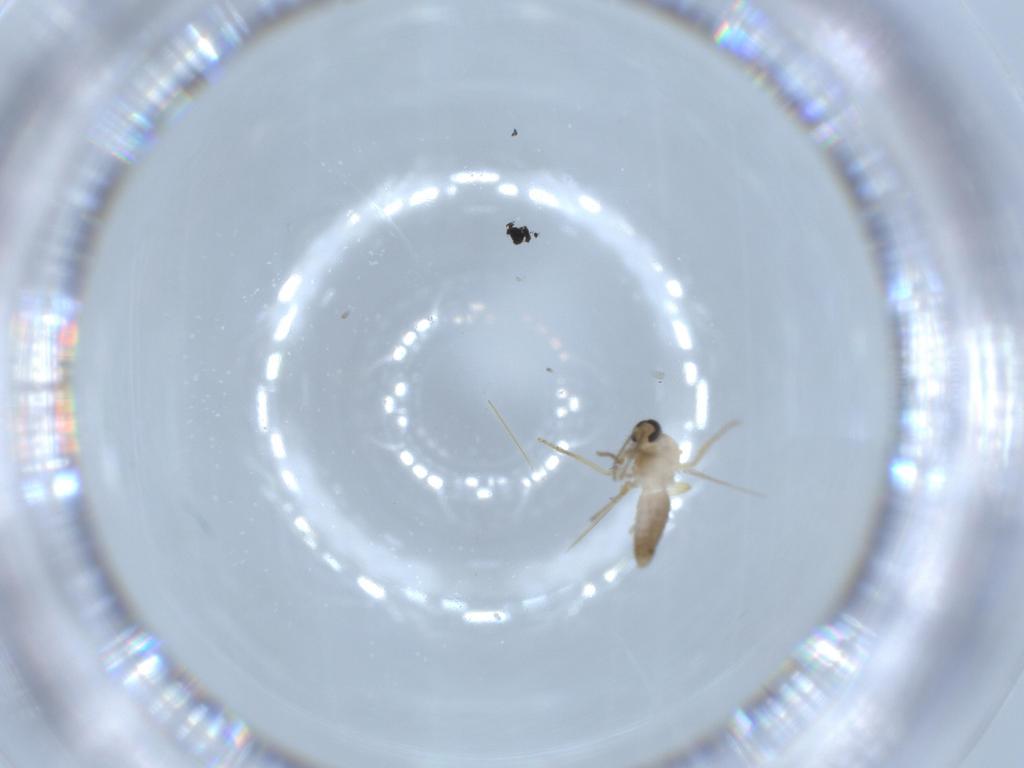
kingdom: Animalia
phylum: Arthropoda
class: Insecta
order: Diptera
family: Ceratopogonidae
